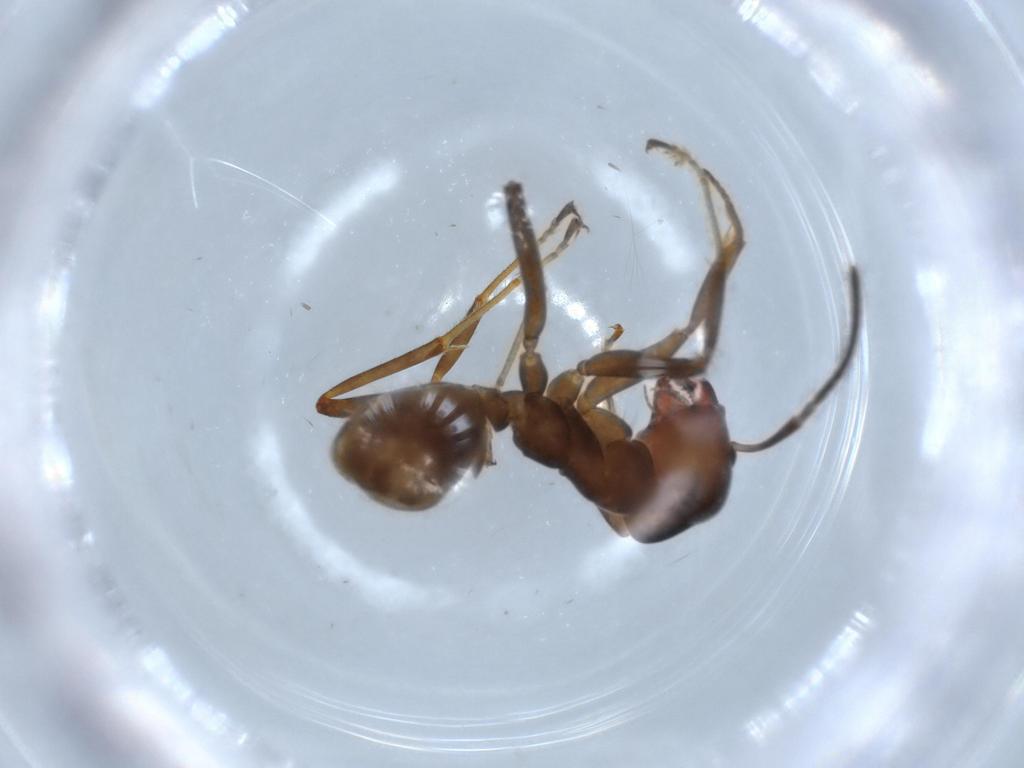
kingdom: Animalia
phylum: Arthropoda
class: Insecta
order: Hymenoptera
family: Formicidae
